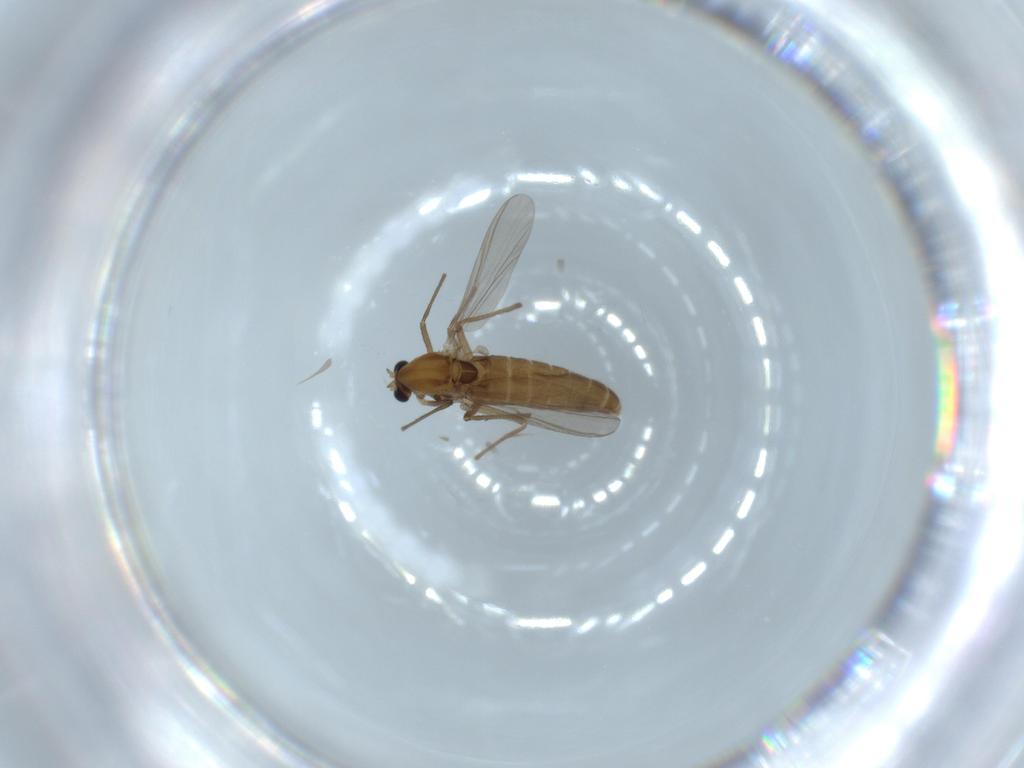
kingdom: Animalia
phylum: Arthropoda
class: Insecta
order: Diptera
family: Chironomidae
